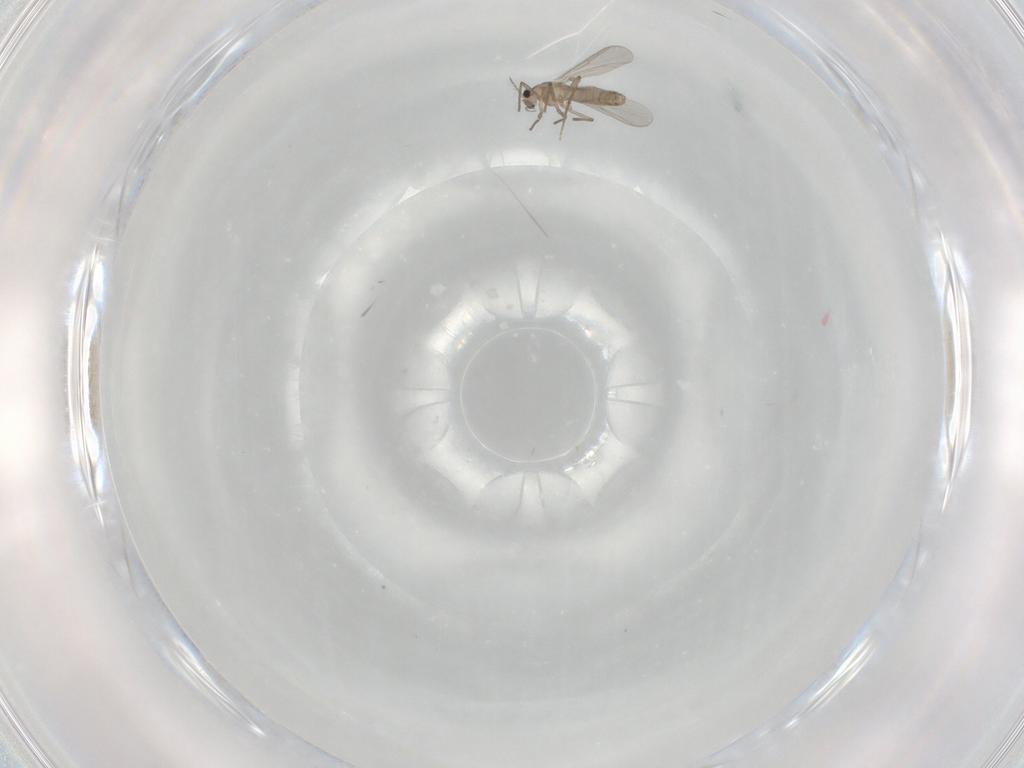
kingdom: Animalia
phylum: Arthropoda
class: Insecta
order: Diptera
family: Chironomidae
